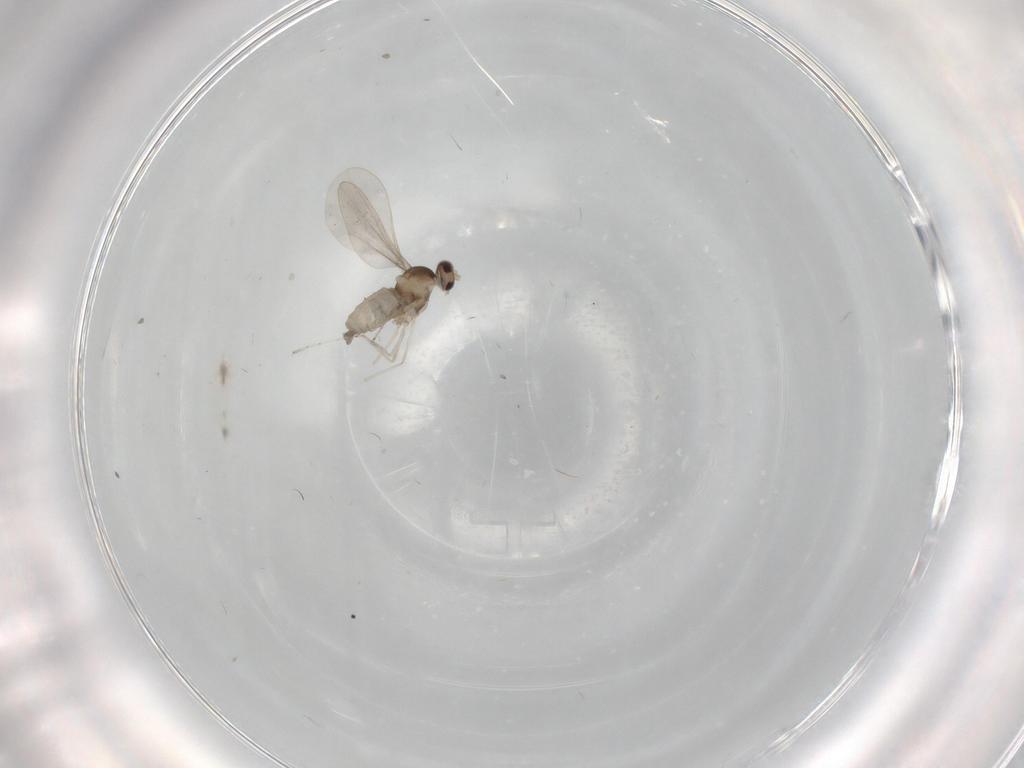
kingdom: Animalia
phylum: Arthropoda
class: Insecta
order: Diptera
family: Cecidomyiidae
